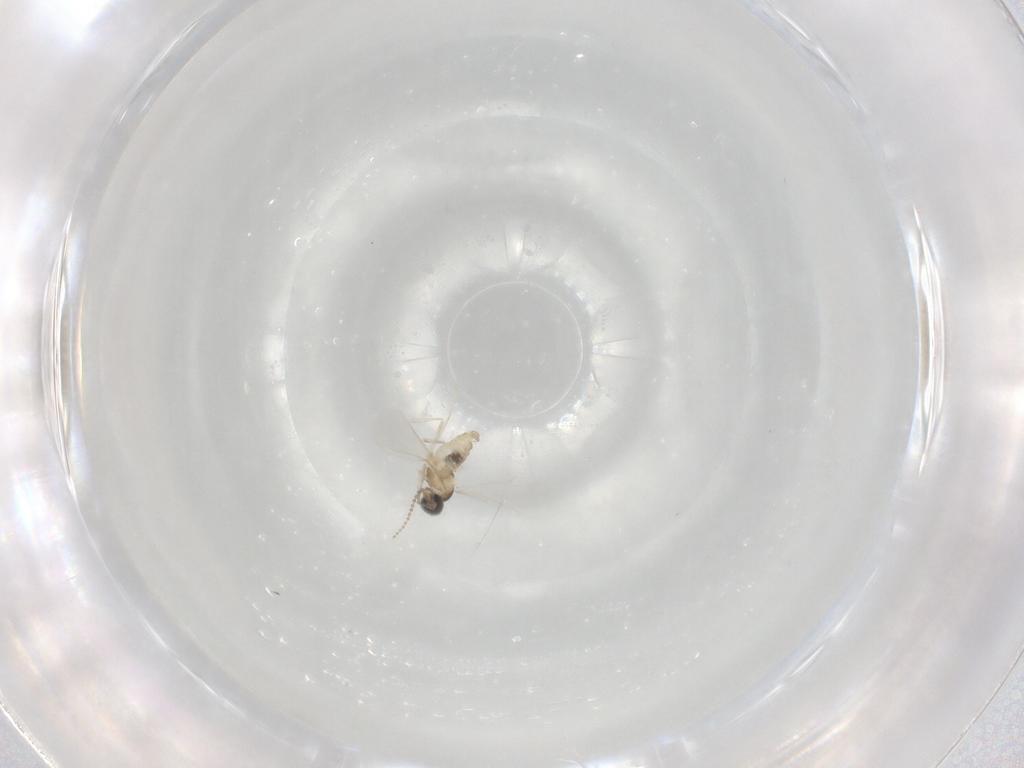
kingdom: Animalia
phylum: Arthropoda
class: Insecta
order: Diptera
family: Cecidomyiidae
